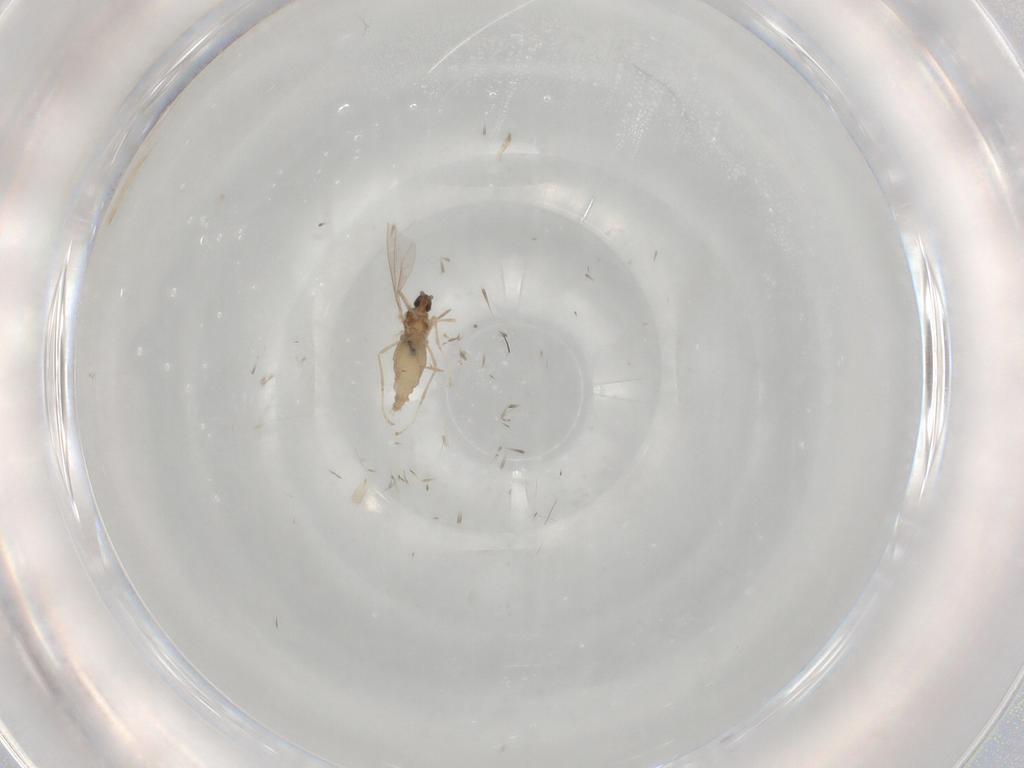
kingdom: Animalia
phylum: Arthropoda
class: Insecta
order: Diptera
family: Cecidomyiidae
